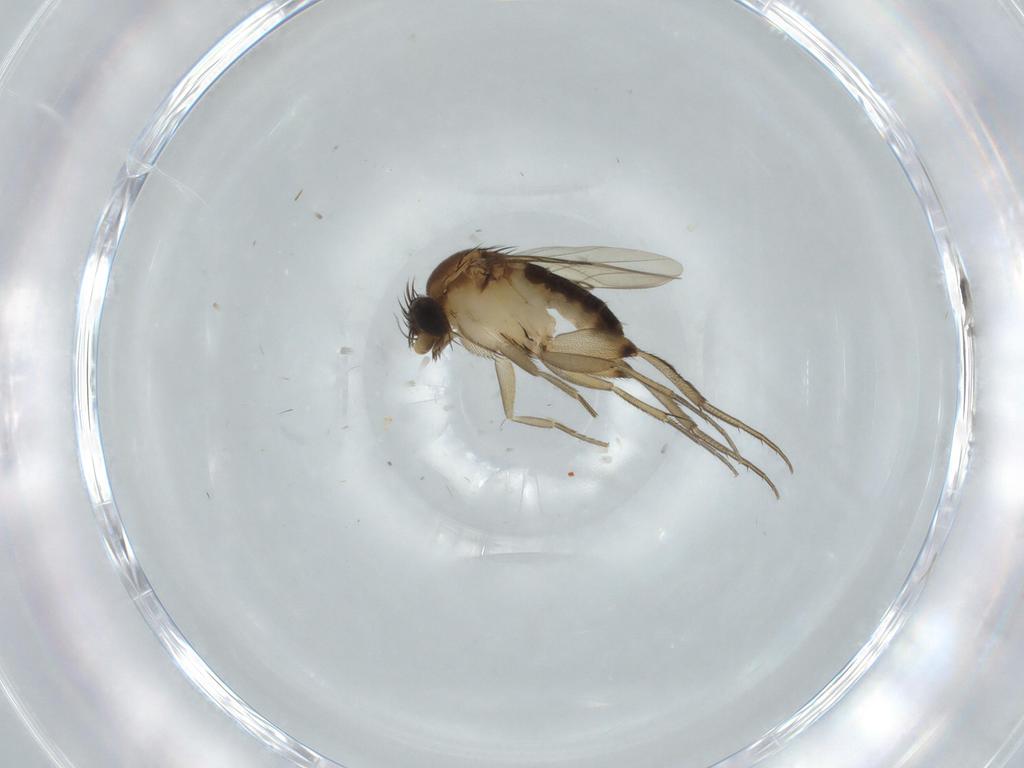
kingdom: Animalia
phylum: Arthropoda
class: Insecta
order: Diptera
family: Phoridae
